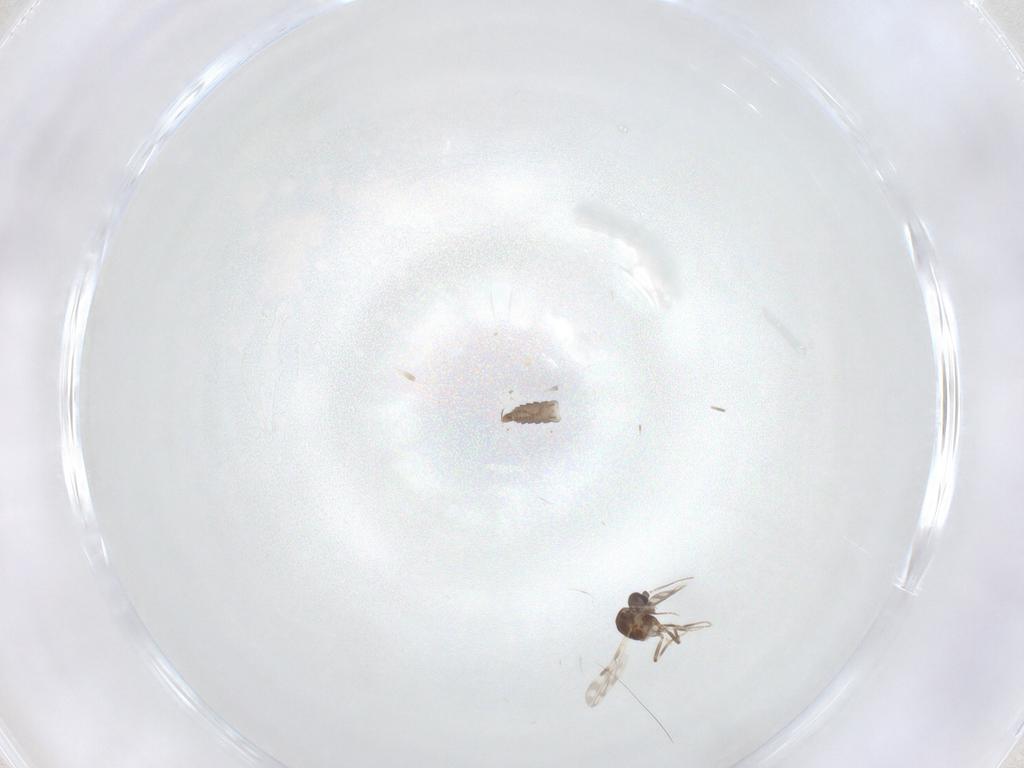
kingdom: Animalia
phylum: Arthropoda
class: Insecta
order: Diptera
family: Ceratopogonidae
